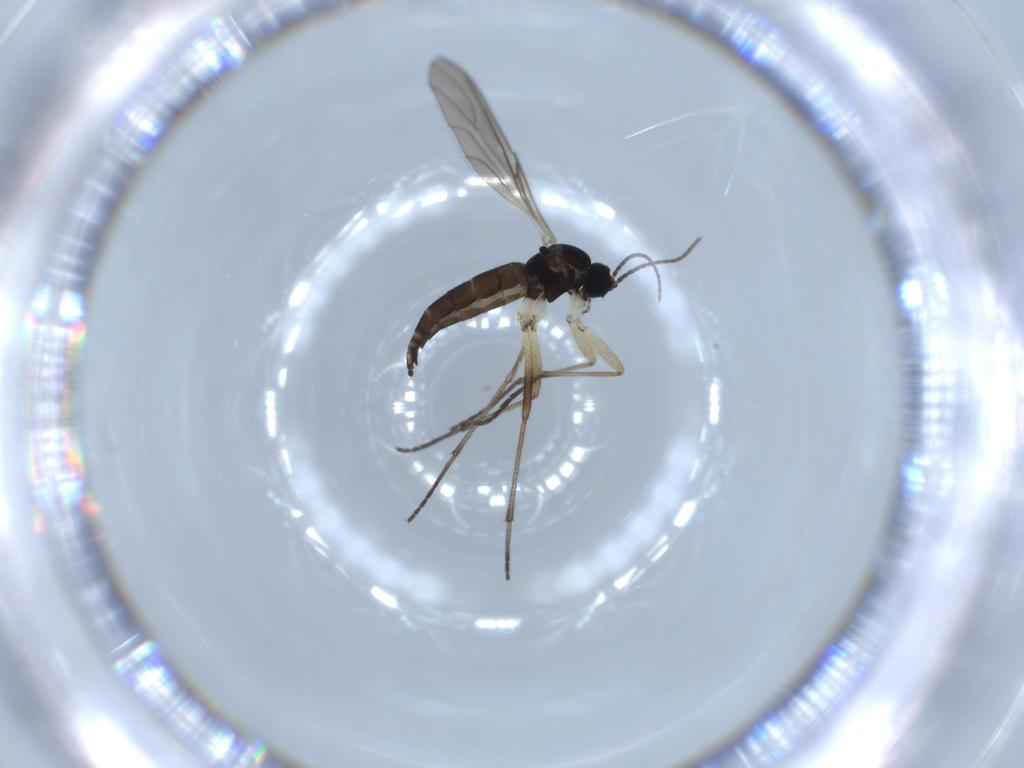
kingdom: Animalia
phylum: Arthropoda
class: Insecta
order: Diptera
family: Sciaridae
